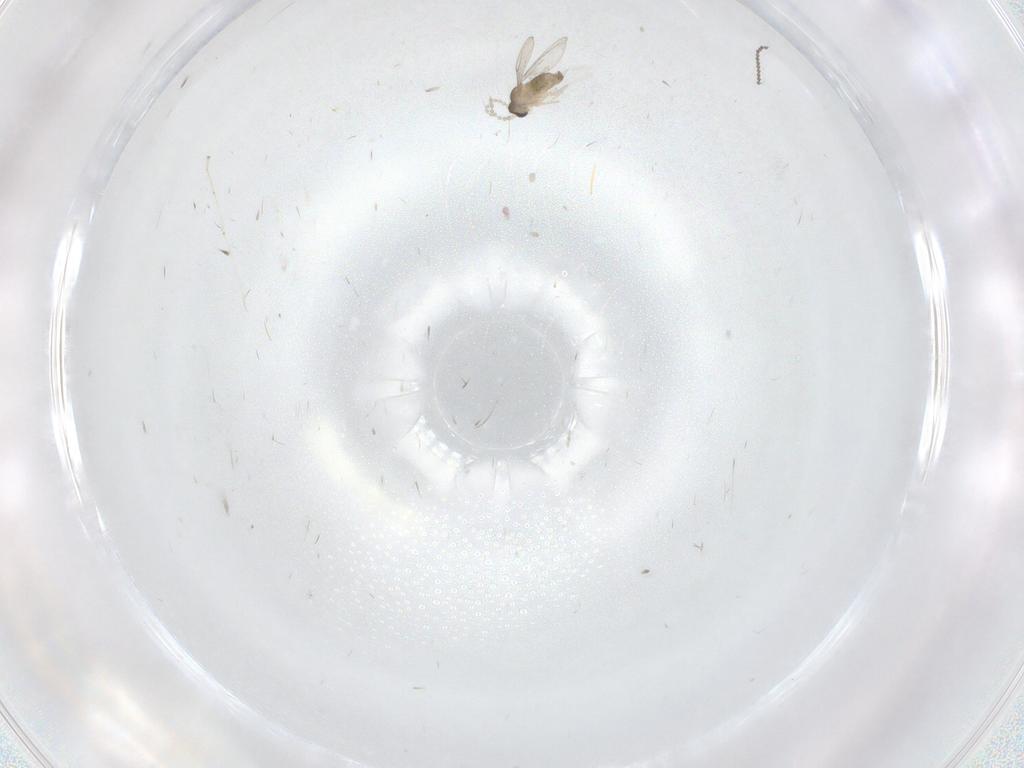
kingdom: Animalia
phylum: Arthropoda
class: Insecta
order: Diptera
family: Cecidomyiidae
